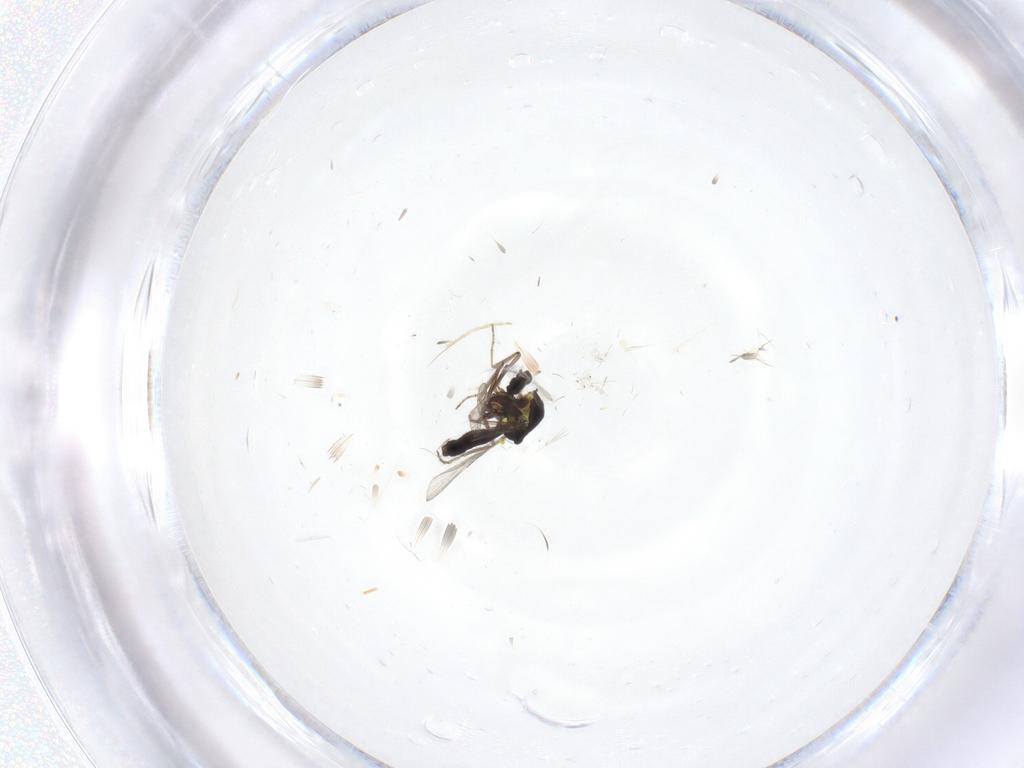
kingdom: Animalia
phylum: Arthropoda
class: Insecta
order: Diptera
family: Ceratopogonidae
